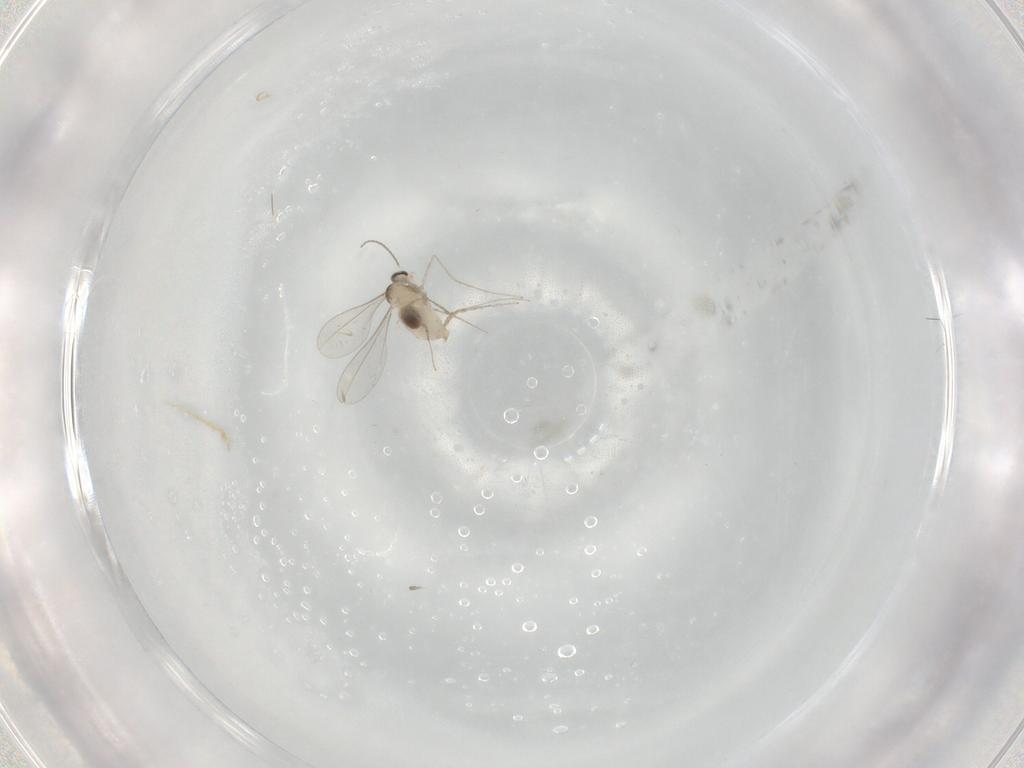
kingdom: Animalia
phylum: Arthropoda
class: Insecta
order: Diptera
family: Cecidomyiidae
